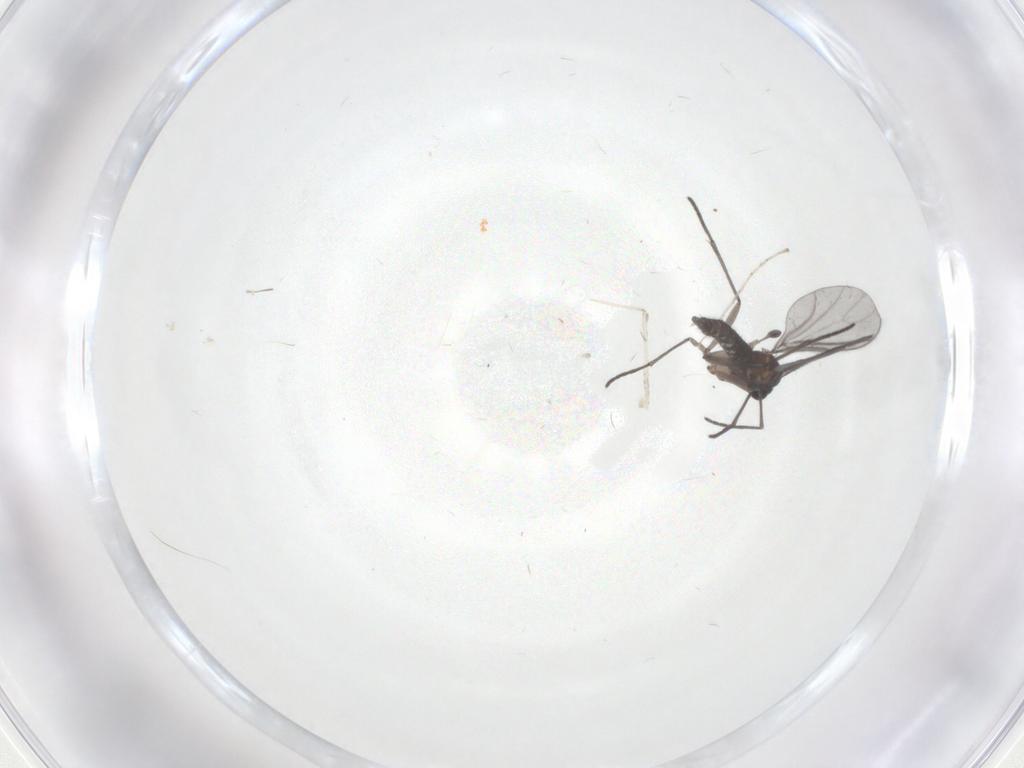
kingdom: Animalia
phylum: Arthropoda
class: Insecta
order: Diptera
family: Cecidomyiidae
